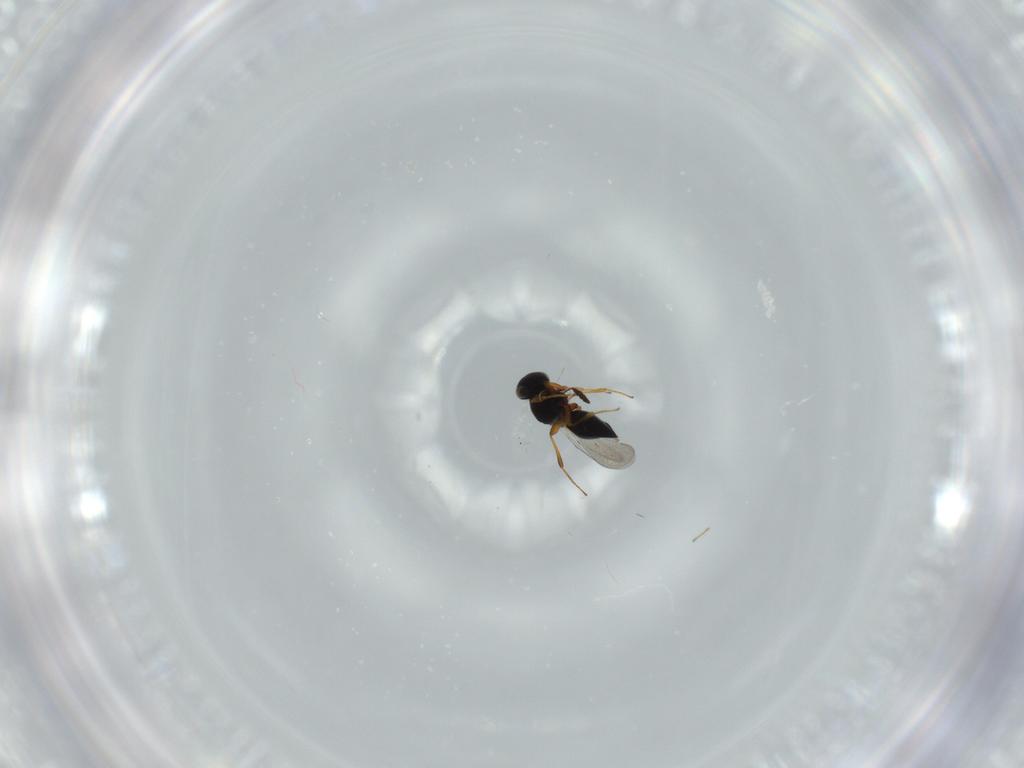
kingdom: Animalia
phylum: Arthropoda
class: Insecta
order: Hymenoptera
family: Platygastridae
